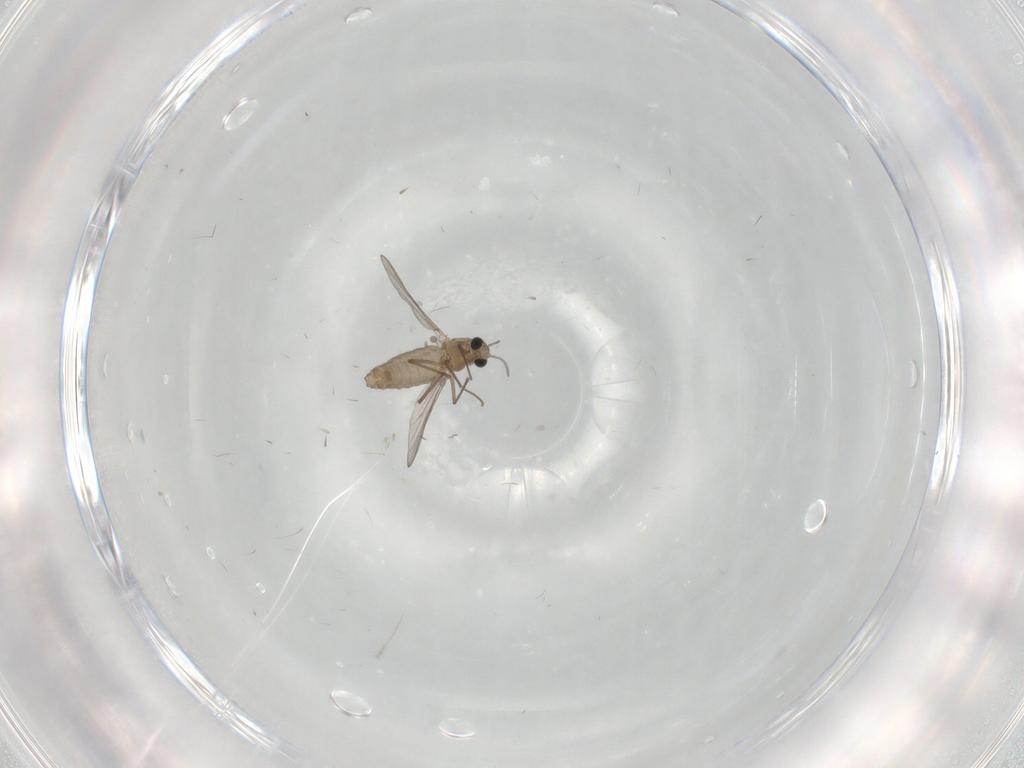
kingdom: Animalia
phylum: Arthropoda
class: Insecta
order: Diptera
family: Chironomidae
